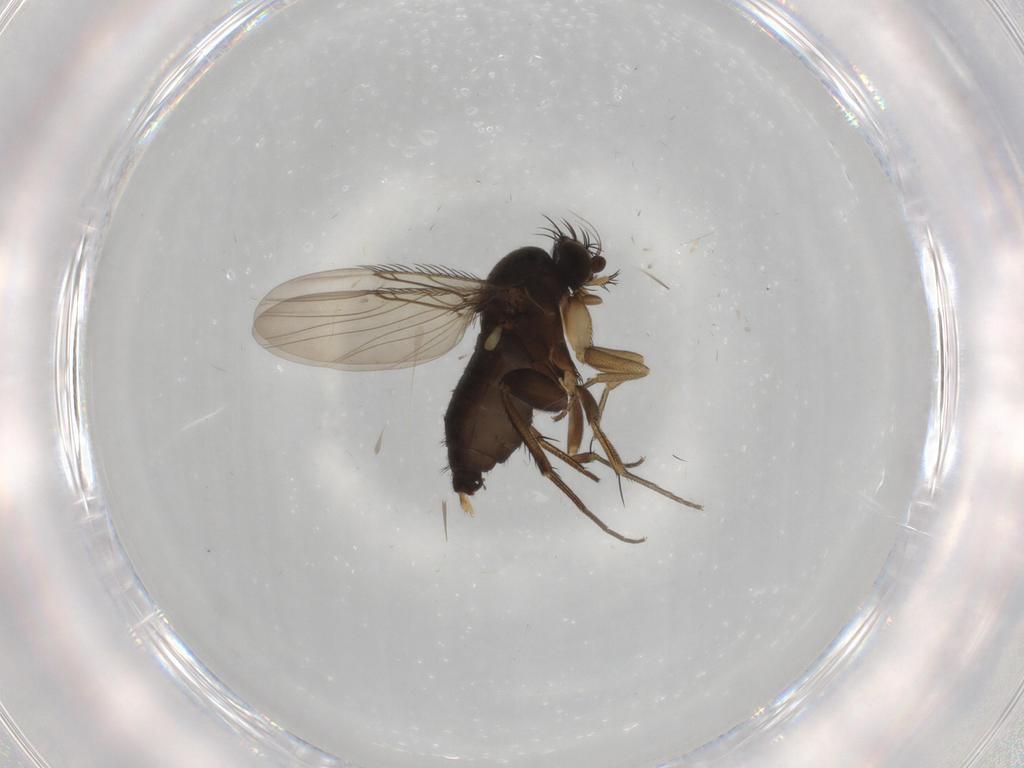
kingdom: Animalia
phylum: Arthropoda
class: Insecta
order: Diptera
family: Phoridae
